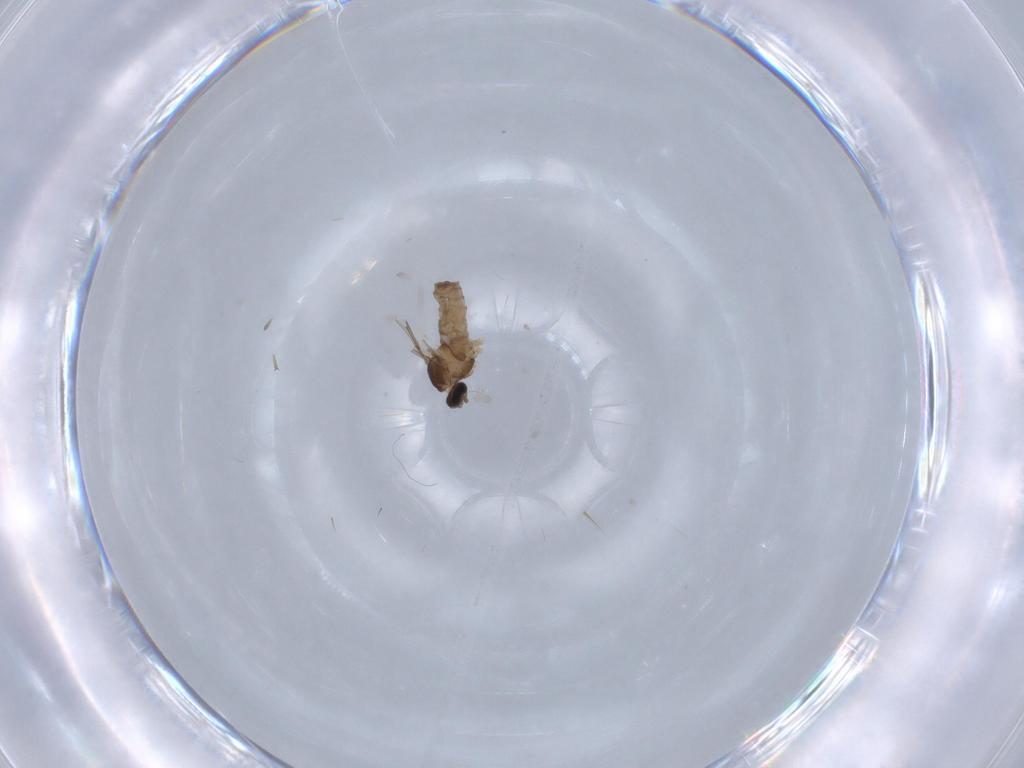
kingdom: Animalia
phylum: Arthropoda
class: Insecta
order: Diptera
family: Cecidomyiidae
